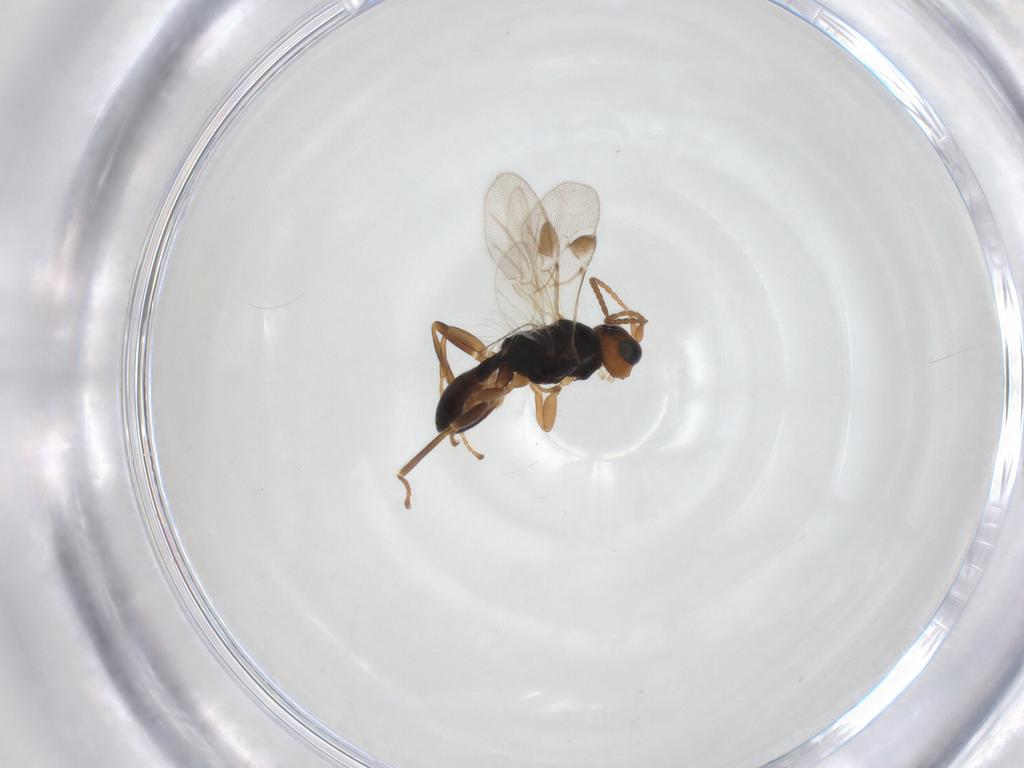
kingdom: Animalia
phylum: Arthropoda
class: Insecta
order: Hymenoptera
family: Braconidae
